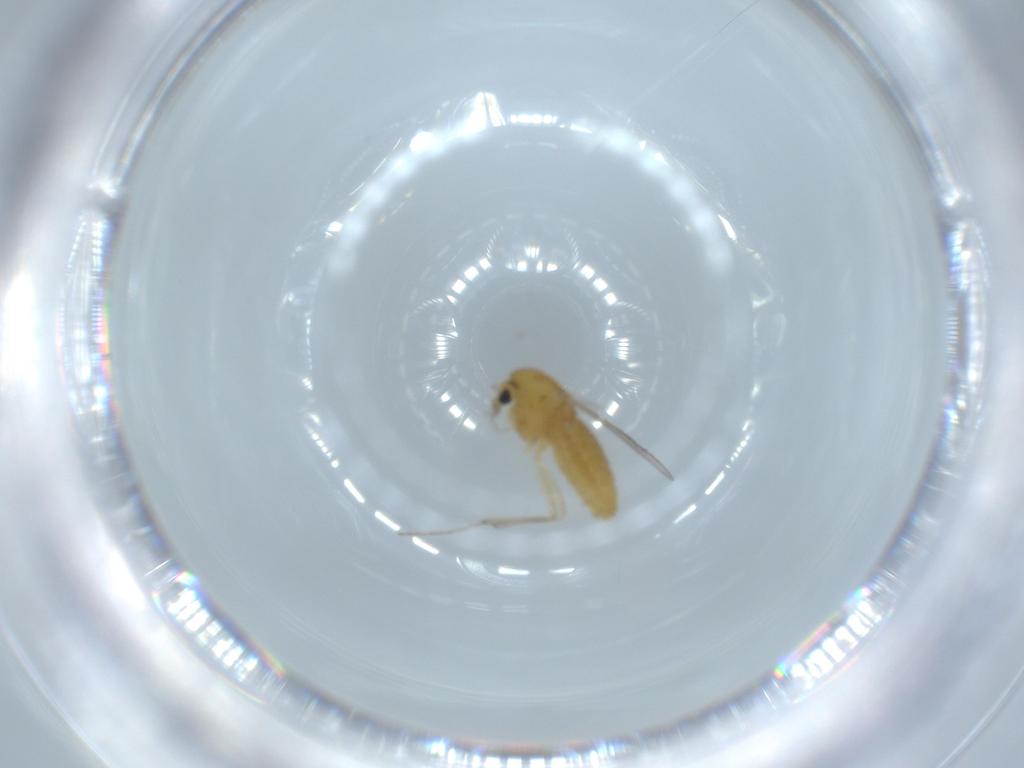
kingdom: Animalia
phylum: Arthropoda
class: Insecta
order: Diptera
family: Chironomidae
